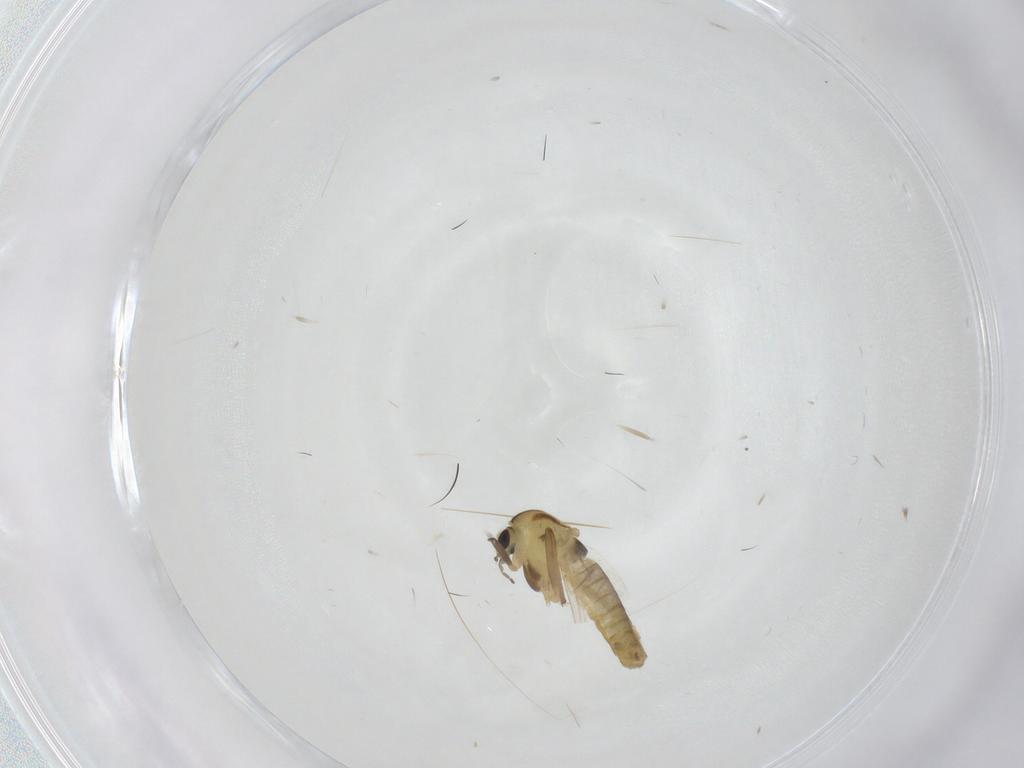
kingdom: Animalia
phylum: Arthropoda
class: Insecta
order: Diptera
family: Chironomidae
